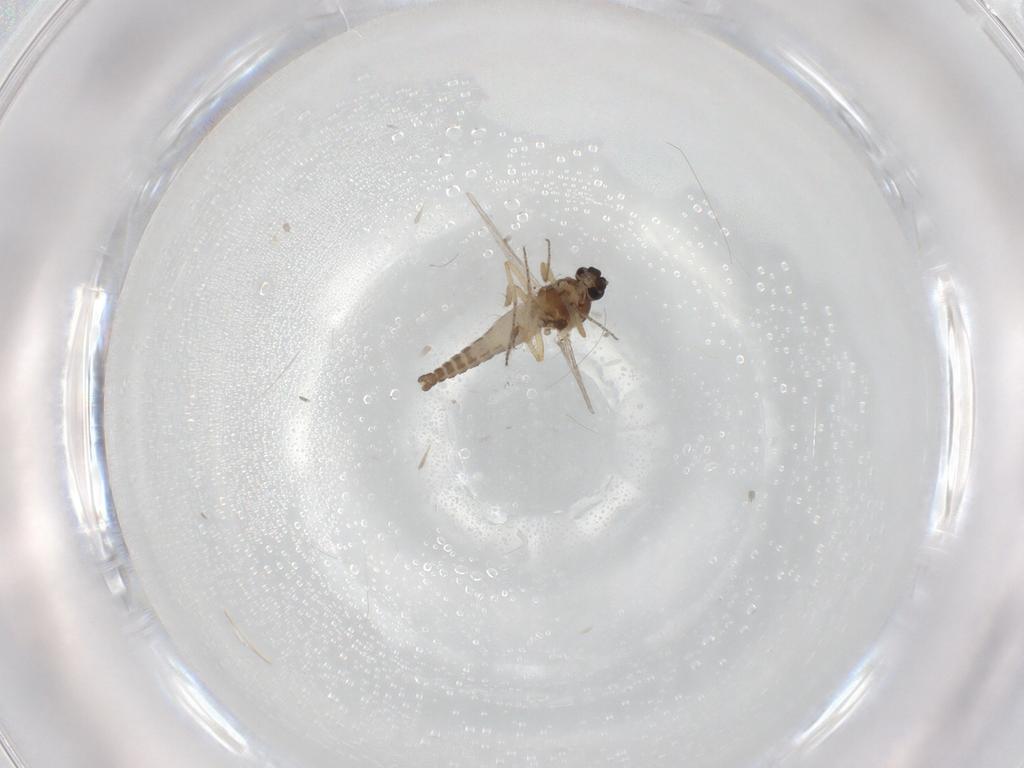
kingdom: Animalia
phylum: Arthropoda
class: Insecta
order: Diptera
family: Ceratopogonidae
